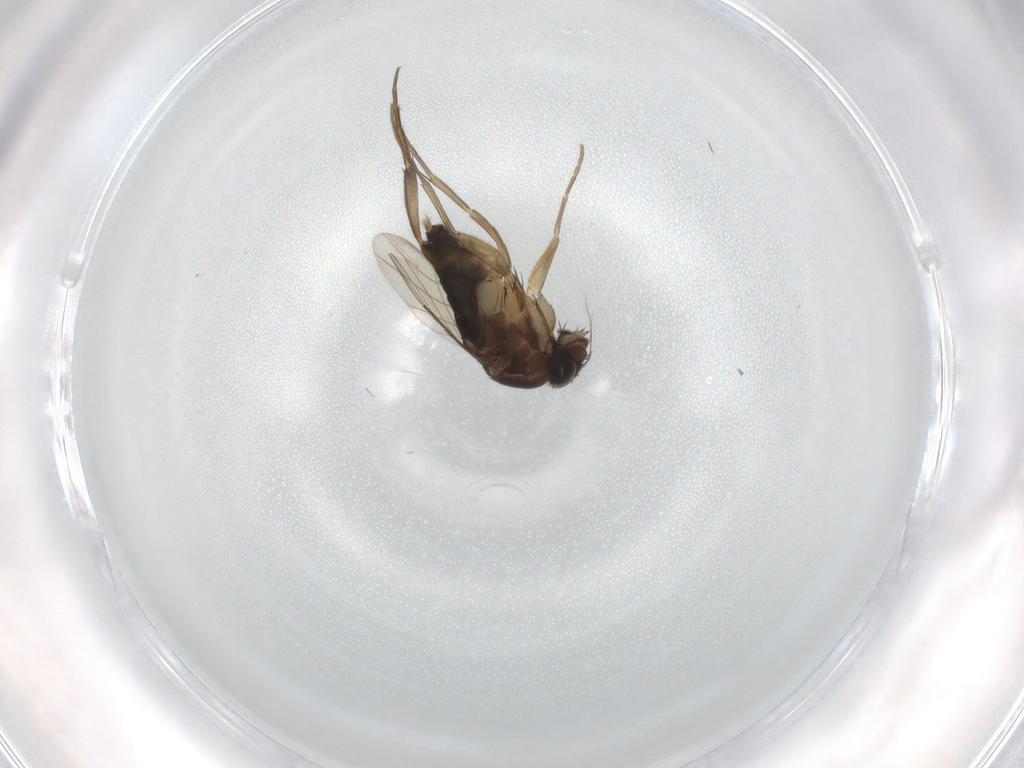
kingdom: Animalia
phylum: Arthropoda
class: Insecta
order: Diptera
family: Phoridae
